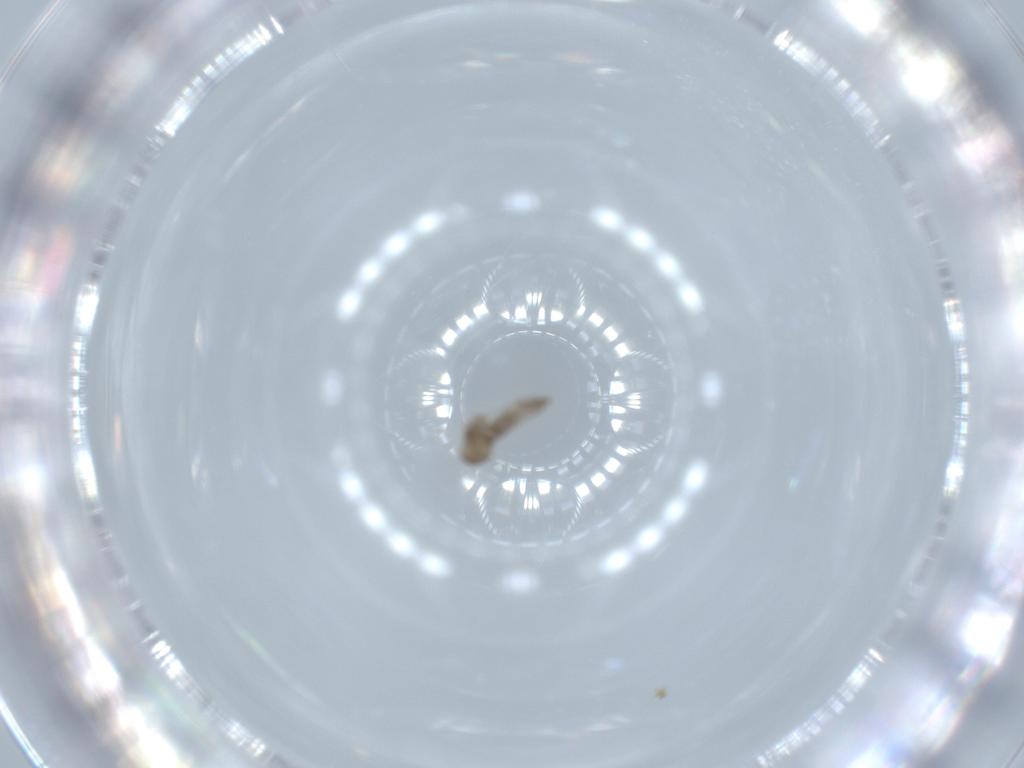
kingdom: Animalia
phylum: Arthropoda
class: Insecta
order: Diptera
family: Cecidomyiidae
